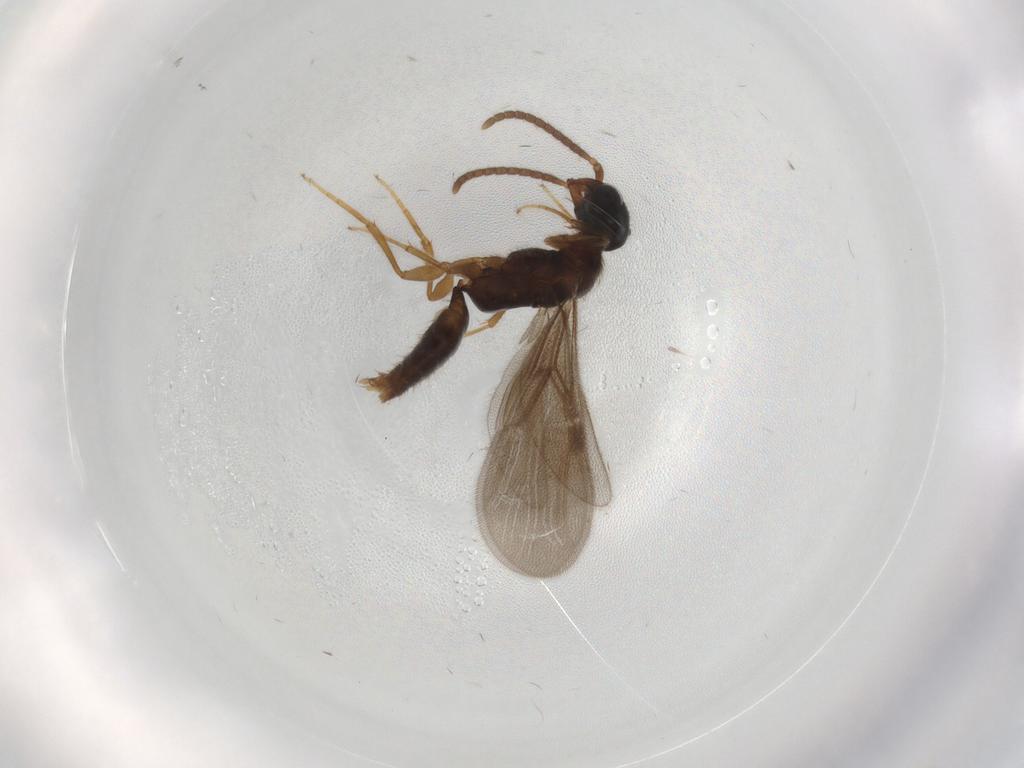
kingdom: Animalia
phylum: Arthropoda
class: Insecta
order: Hymenoptera
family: Bethylidae
